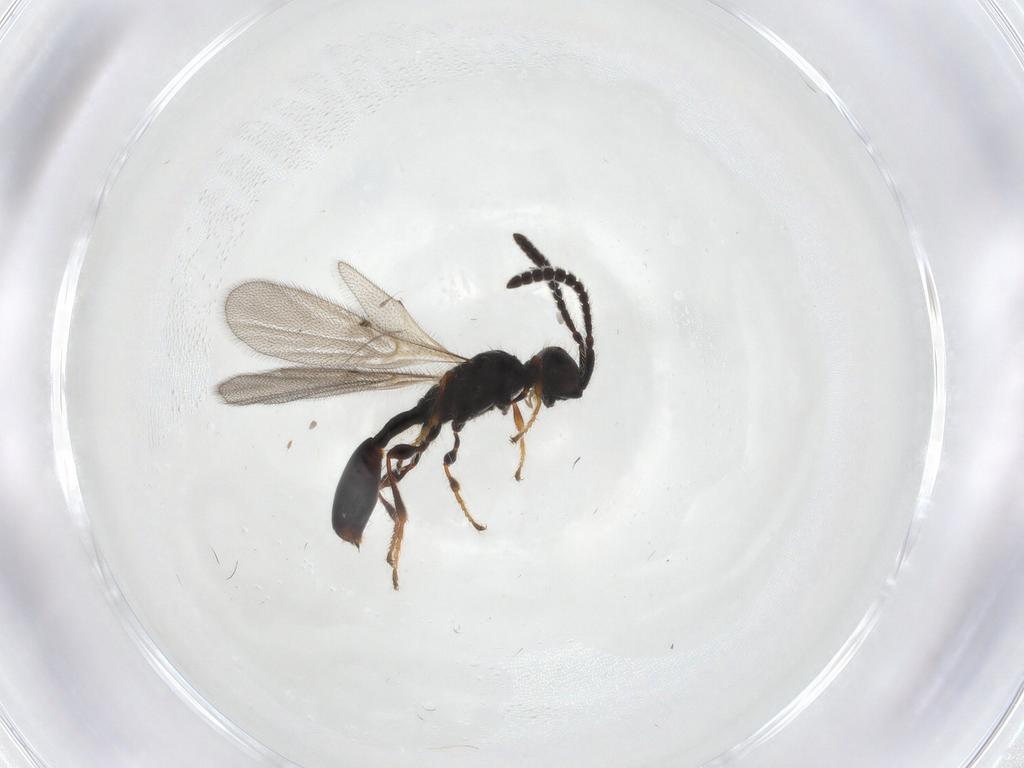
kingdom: Animalia
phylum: Arthropoda
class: Insecta
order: Hymenoptera
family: Diapriidae
